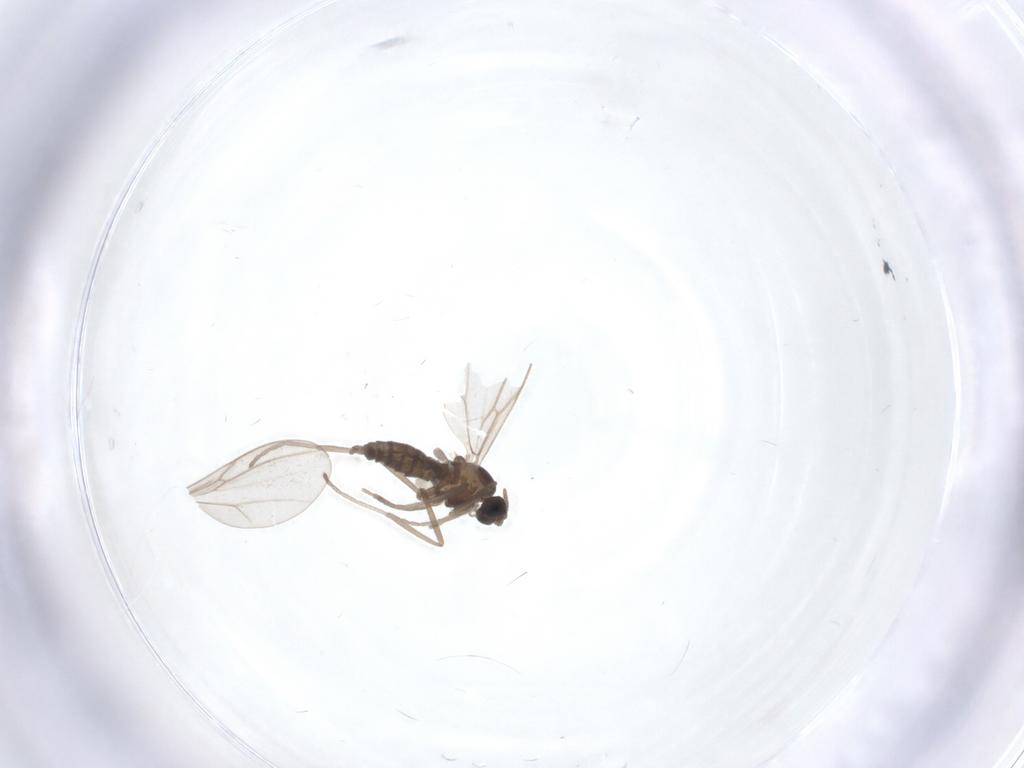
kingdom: Animalia
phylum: Arthropoda
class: Insecta
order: Diptera
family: Cecidomyiidae
